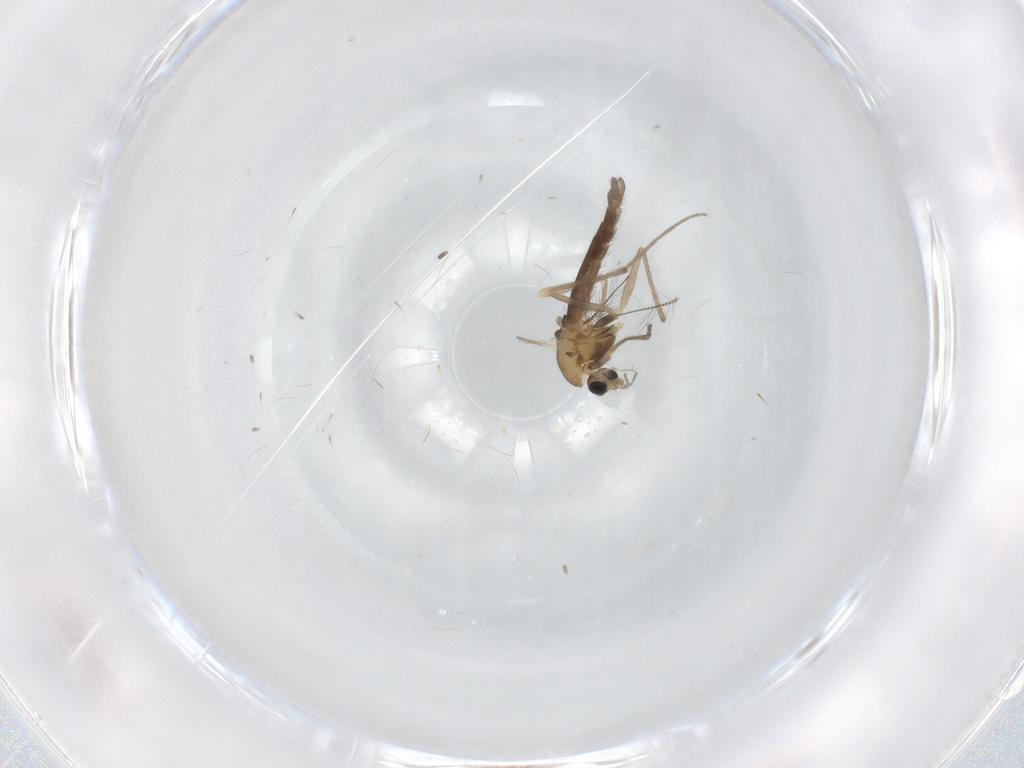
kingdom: Animalia
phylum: Arthropoda
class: Insecta
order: Diptera
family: Chironomidae
